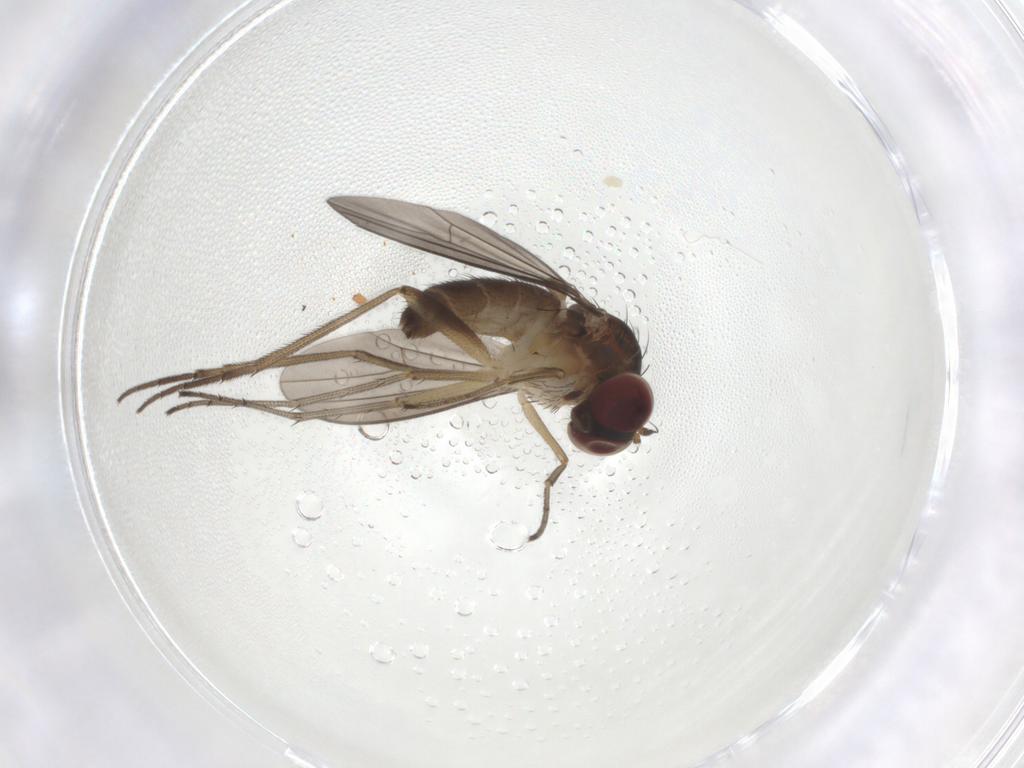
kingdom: Animalia
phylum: Arthropoda
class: Insecta
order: Diptera
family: Dolichopodidae
